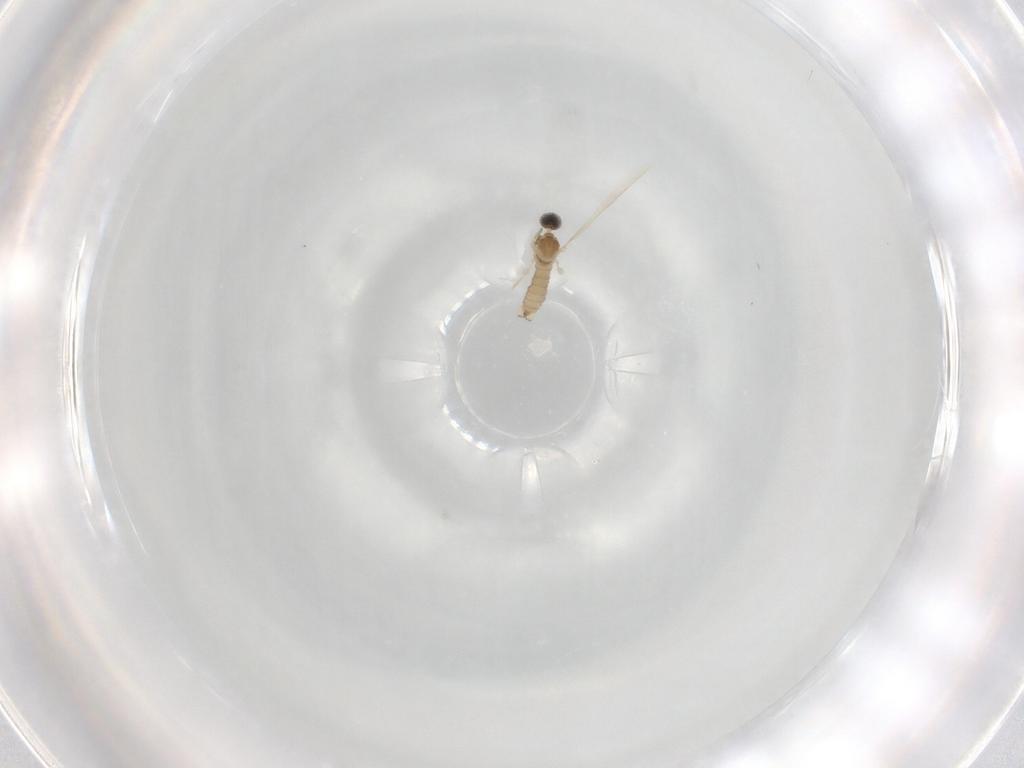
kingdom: Animalia
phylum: Arthropoda
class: Insecta
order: Diptera
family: Cecidomyiidae
